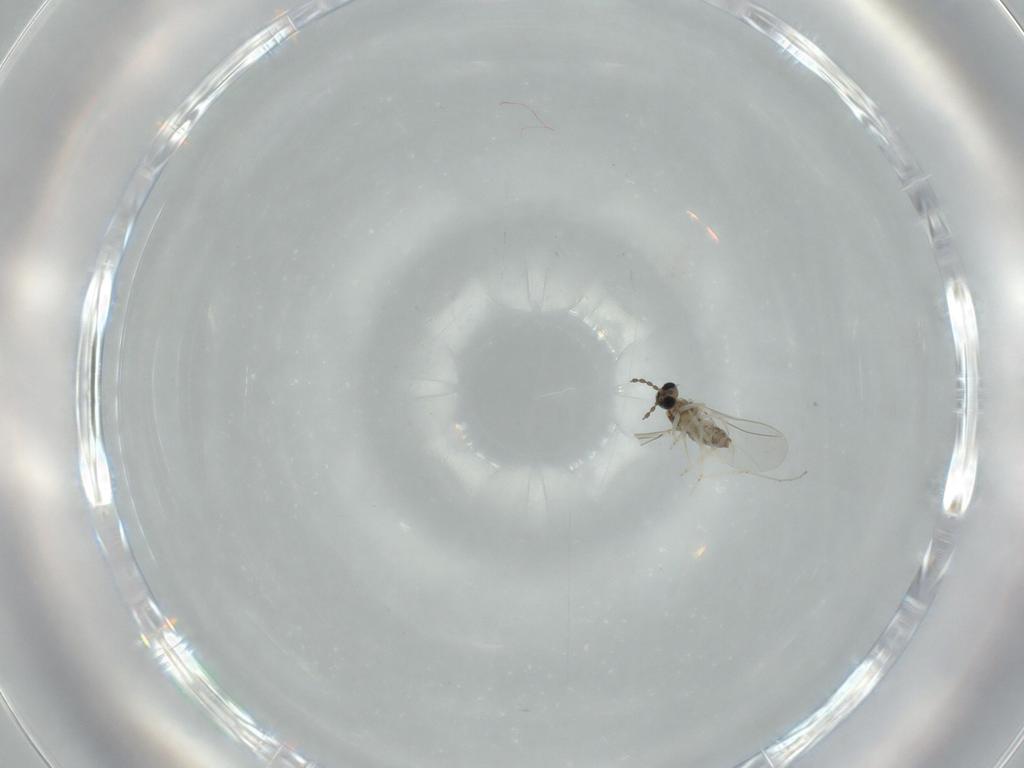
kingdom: Animalia
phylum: Arthropoda
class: Insecta
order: Diptera
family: Cecidomyiidae
